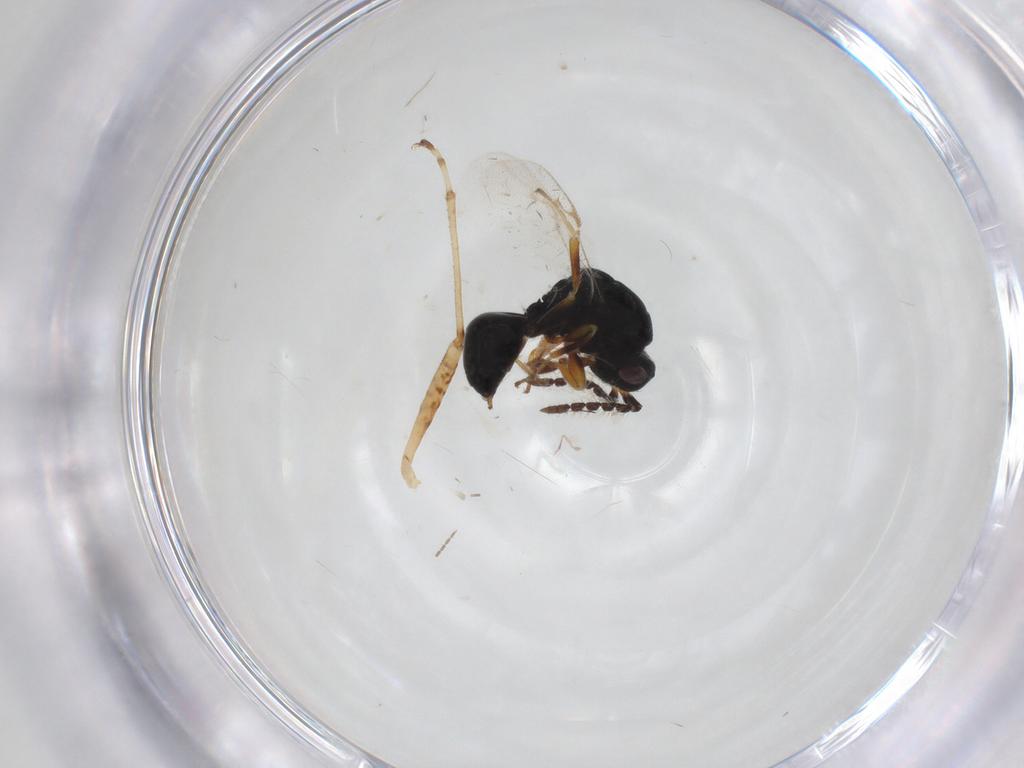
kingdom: Animalia
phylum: Arthropoda
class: Insecta
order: Hymenoptera
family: Eurytomidae
